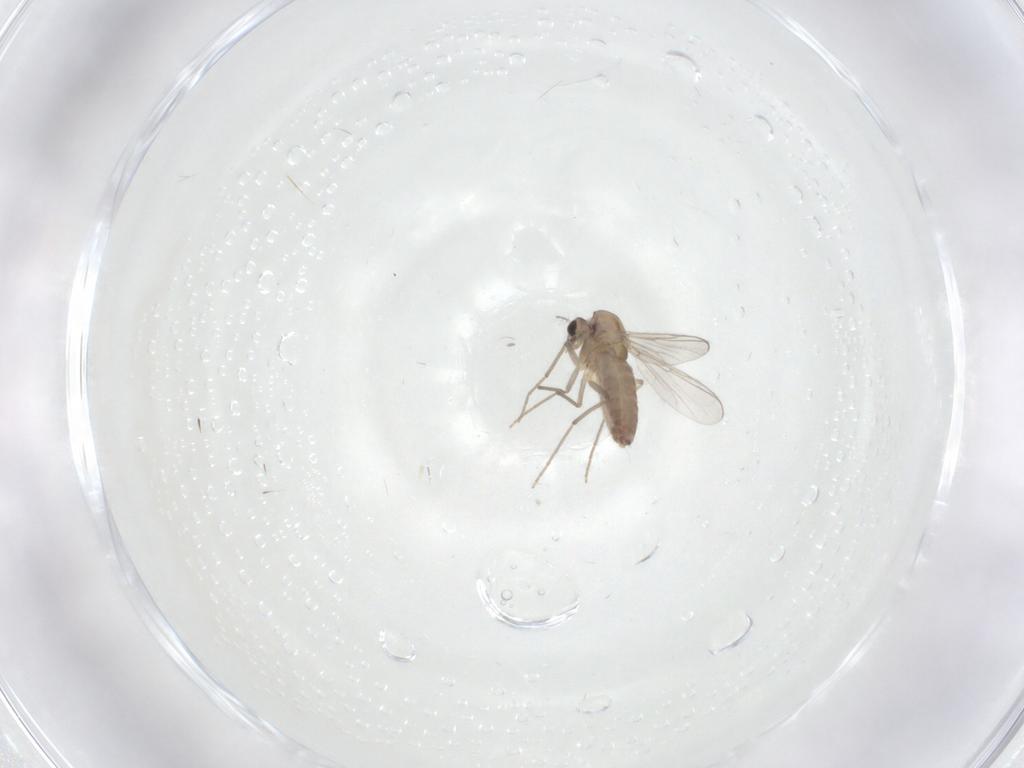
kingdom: Animalia
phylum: Arthropoda
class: Insecta
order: Diptera
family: Chironomidae
